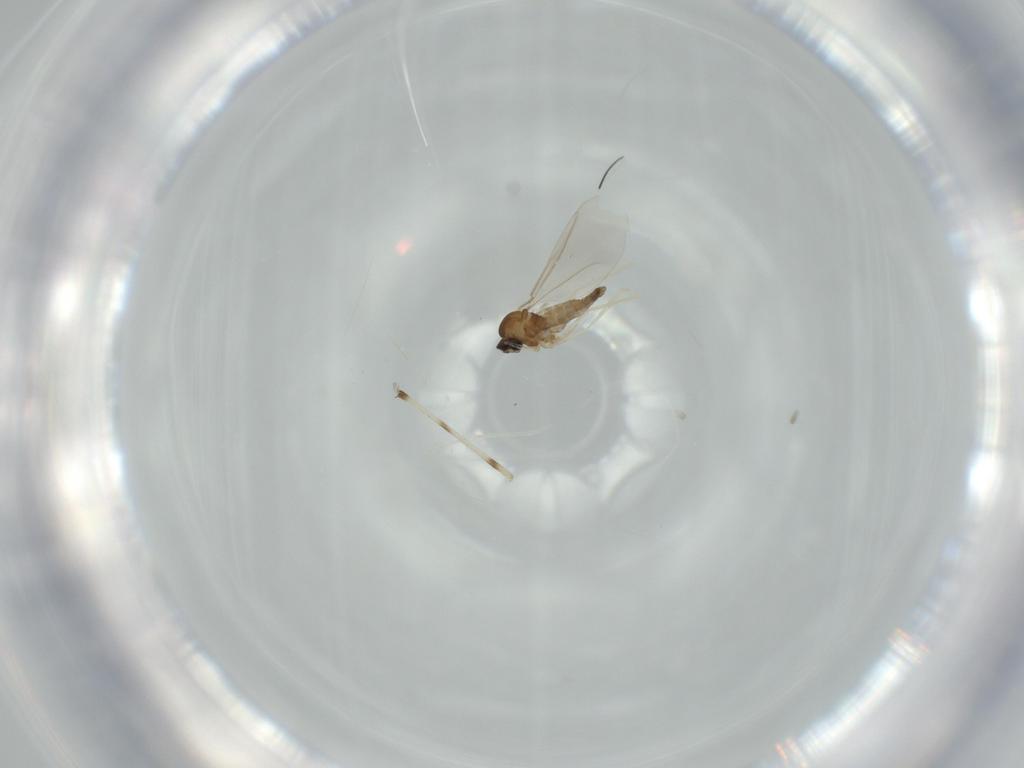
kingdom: Animalia
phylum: Arthropoda
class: Insecta
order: Diptera
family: Cecidomyiidae
